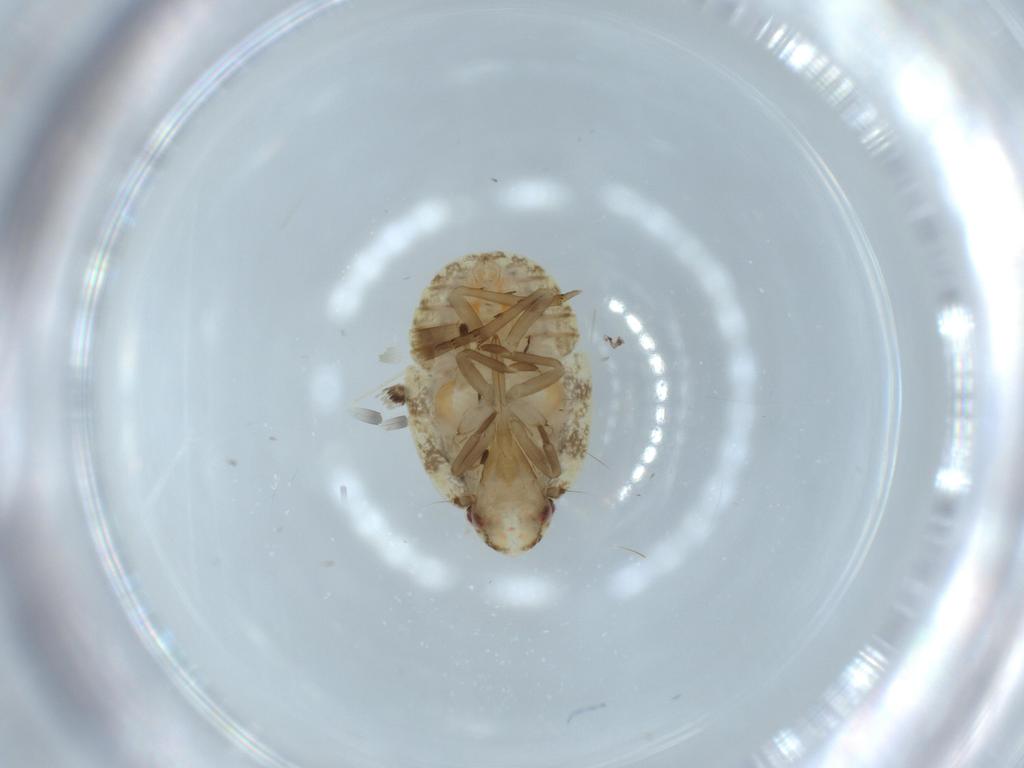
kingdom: Animalia
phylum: Arthropoda
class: Insecta
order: Hemiptera
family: Flatidae
